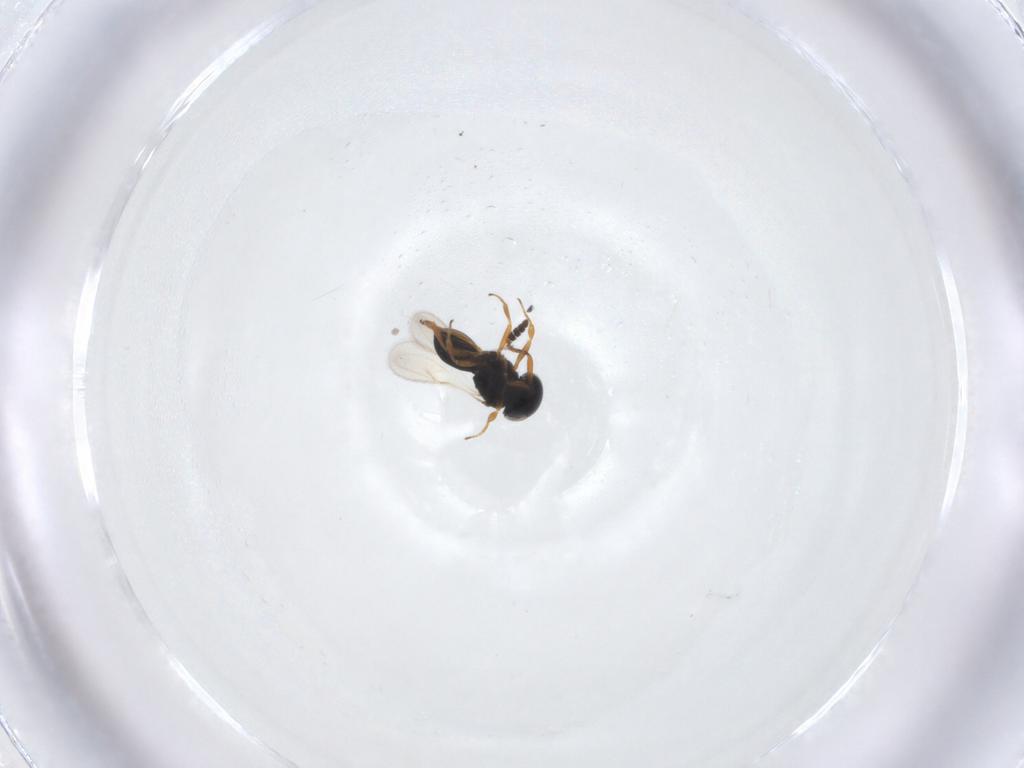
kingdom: Animalia
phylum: Arthropoda
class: Insecta
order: Hymenoptera
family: Scelionidae
